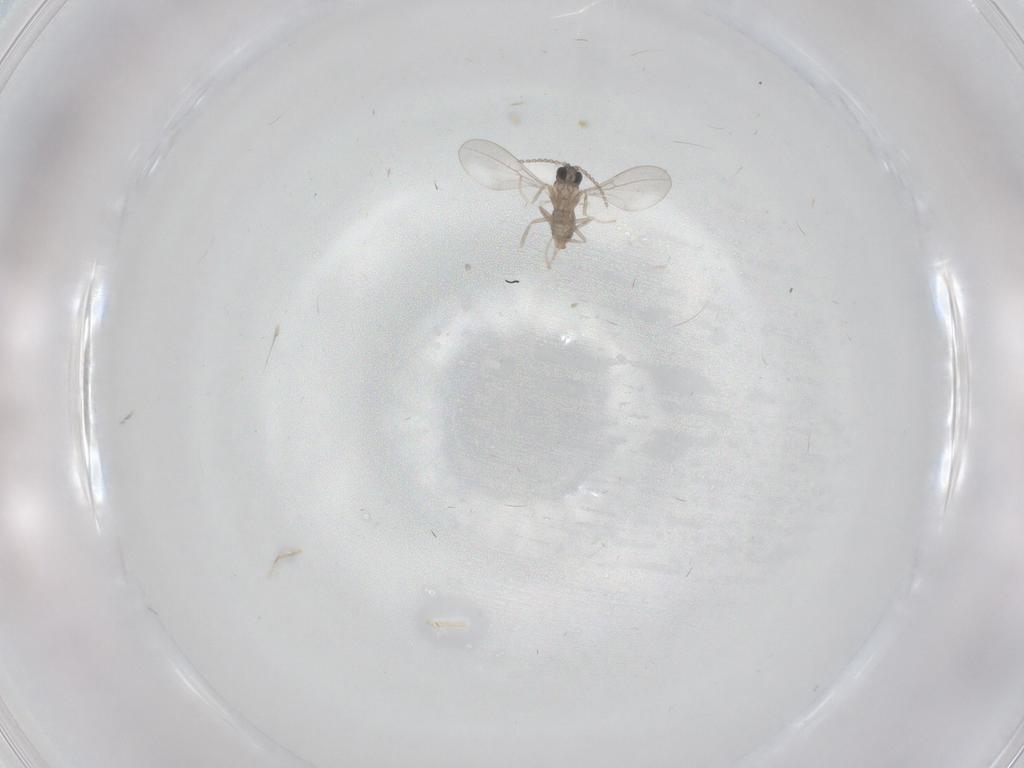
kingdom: Animalia
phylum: Arthropoda
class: Insecta
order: Diptera
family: Cecidomyiidae
